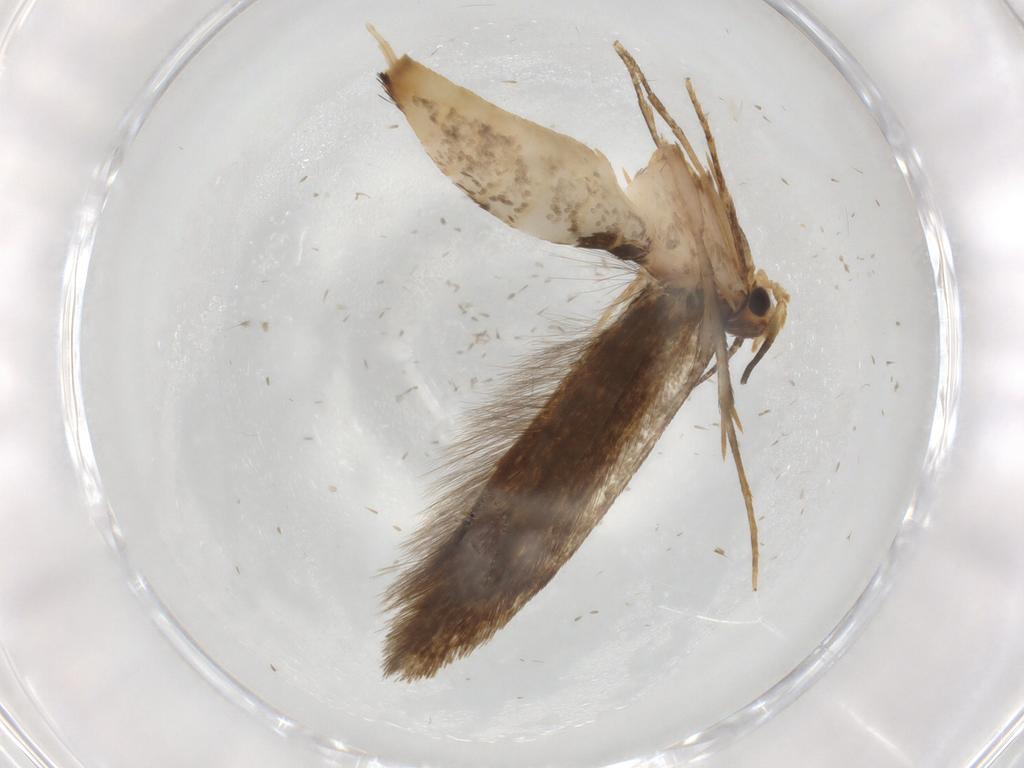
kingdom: Animalia
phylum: Arthropoda
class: Insecta
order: Lepidoptera
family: Tineidae
